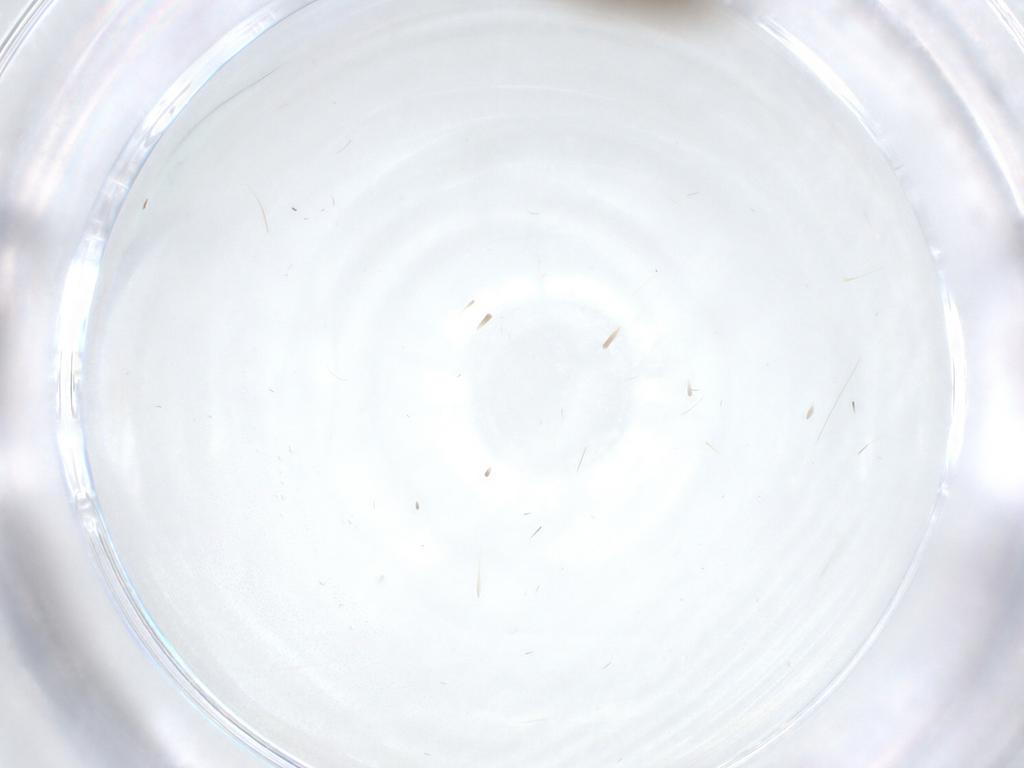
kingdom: Animalia
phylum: Arthropoda
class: Insecta
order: Diptera
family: Phoridae
